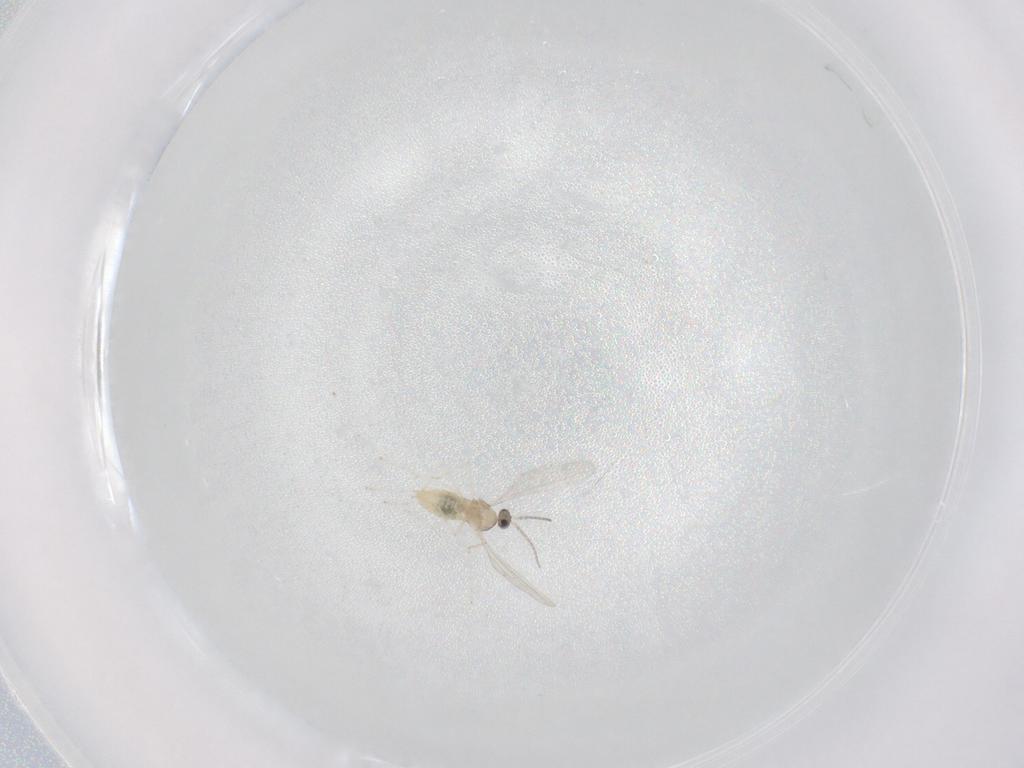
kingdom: Animalia
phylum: Arthropoda
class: Insecta
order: Diptera
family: Cecidomyiidae
